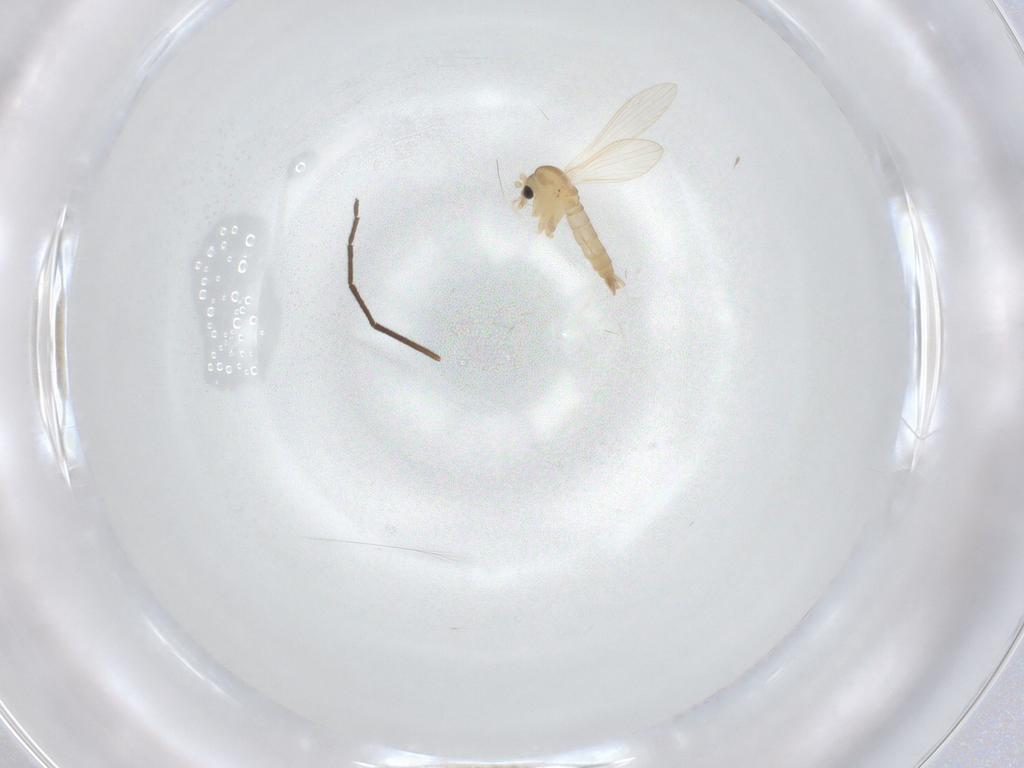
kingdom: Animalia
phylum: Arthropoda
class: Insecta
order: Diptera
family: Psychodidae
